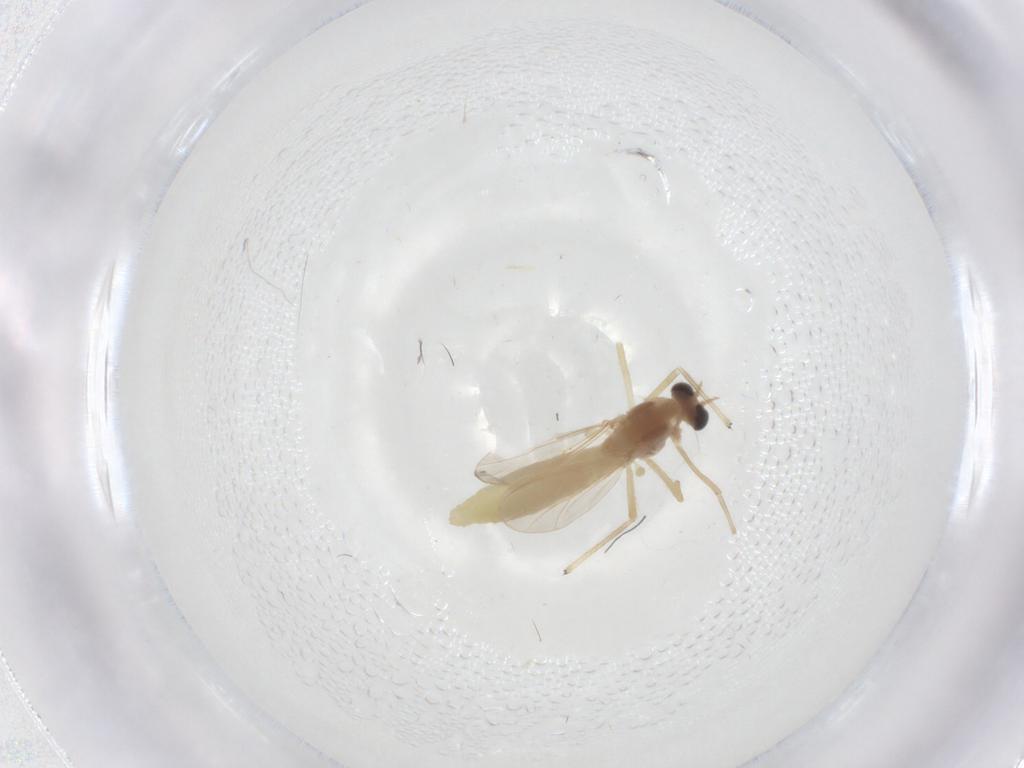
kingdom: Animalia
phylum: Arthropoda
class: Insecta
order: Diptera
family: Chironomidae
